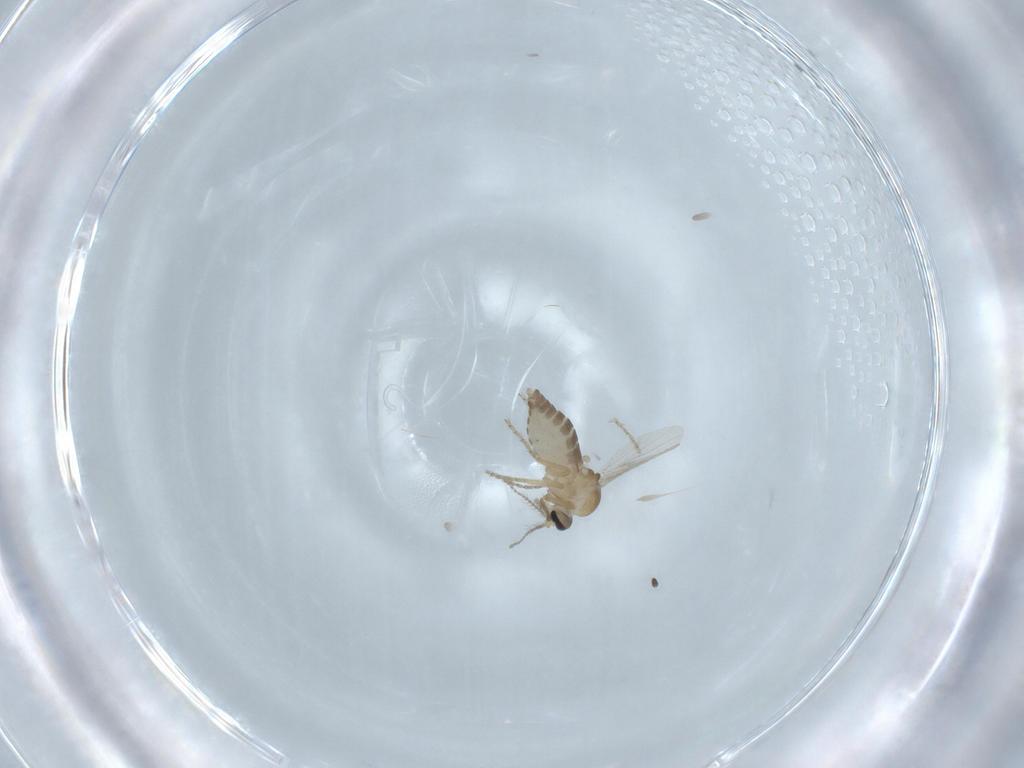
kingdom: Animalia
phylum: Arthropoda
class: Insecta
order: Diptera
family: Ceratopogonidae
